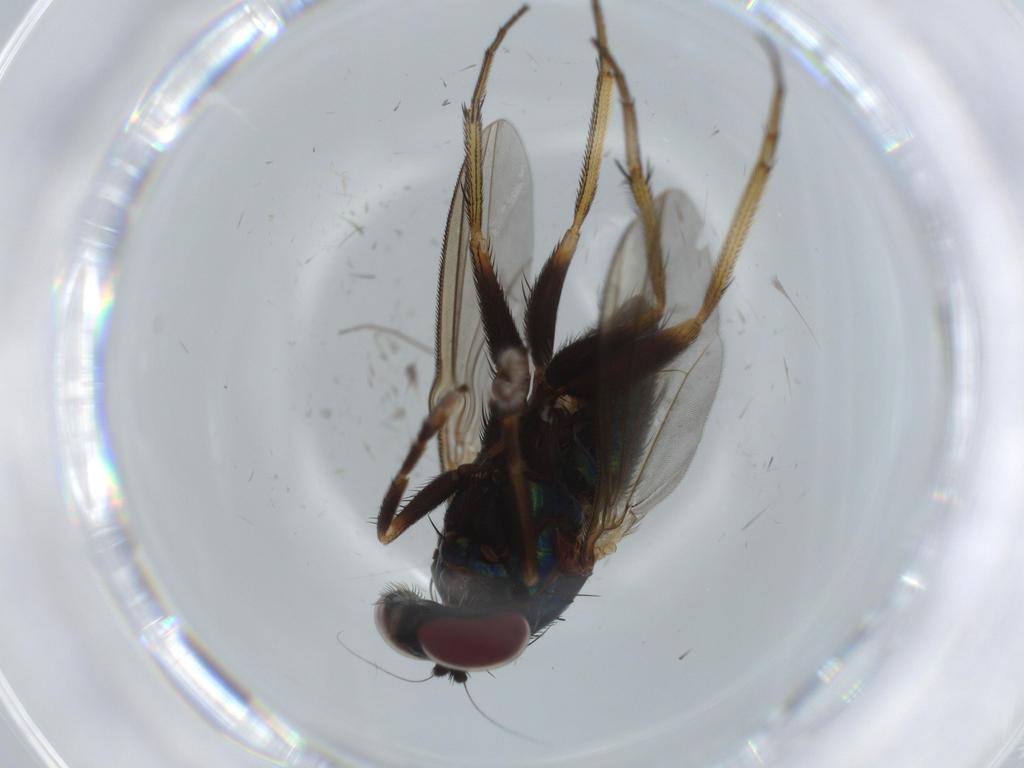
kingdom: Animalia
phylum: Arthropoda
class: Insecta
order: Diptera
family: Dolichopodidae
